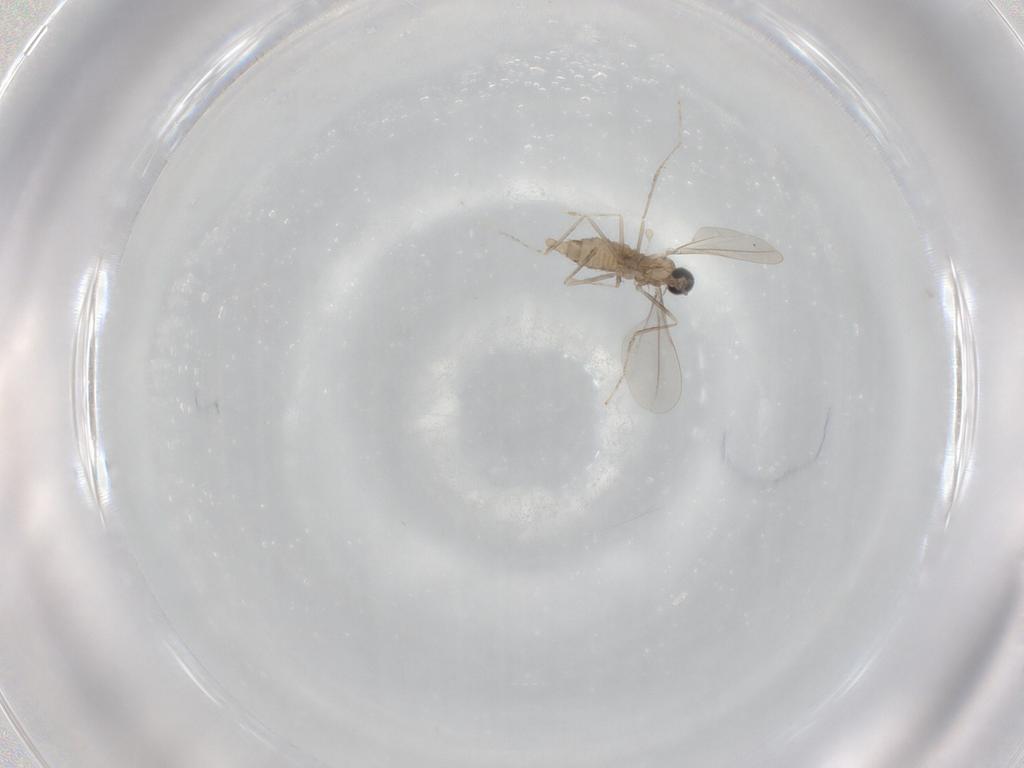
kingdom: Animalia
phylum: Arthropoda
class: Insecta
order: Diptera
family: Cecidomyiidae
